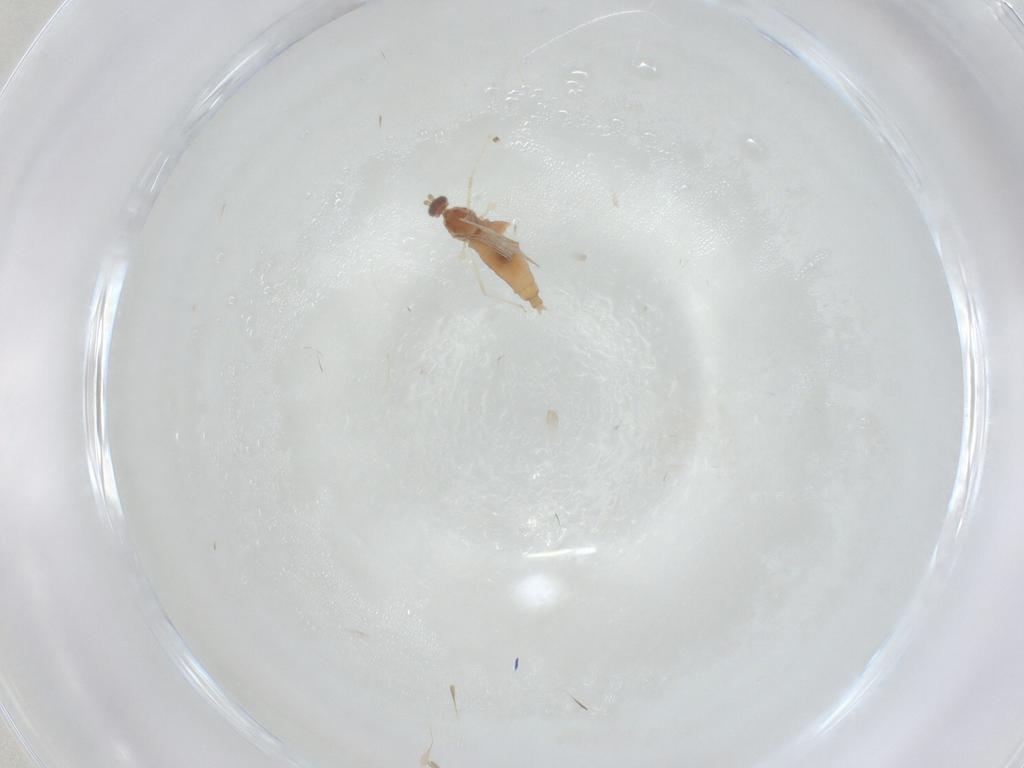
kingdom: Animalia
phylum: Arthropoda
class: Insecta
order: Diptera
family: Cecidomyiidae
